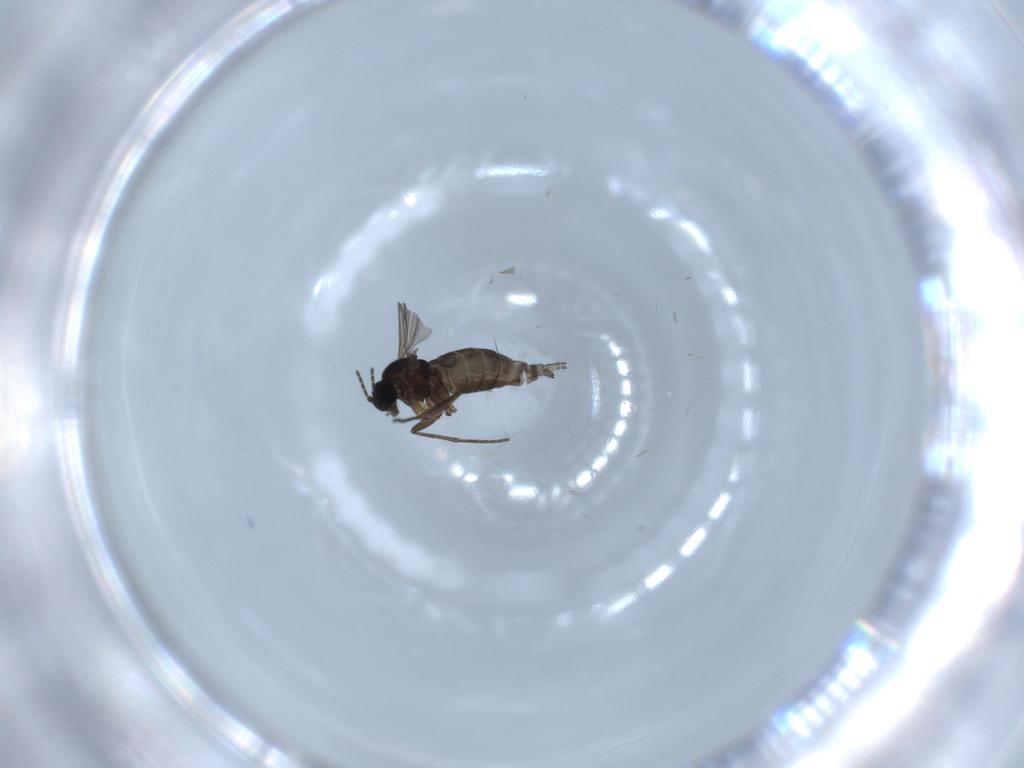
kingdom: Animalia
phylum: Arthropoda
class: Insecta
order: Diptera
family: Sciaridae
